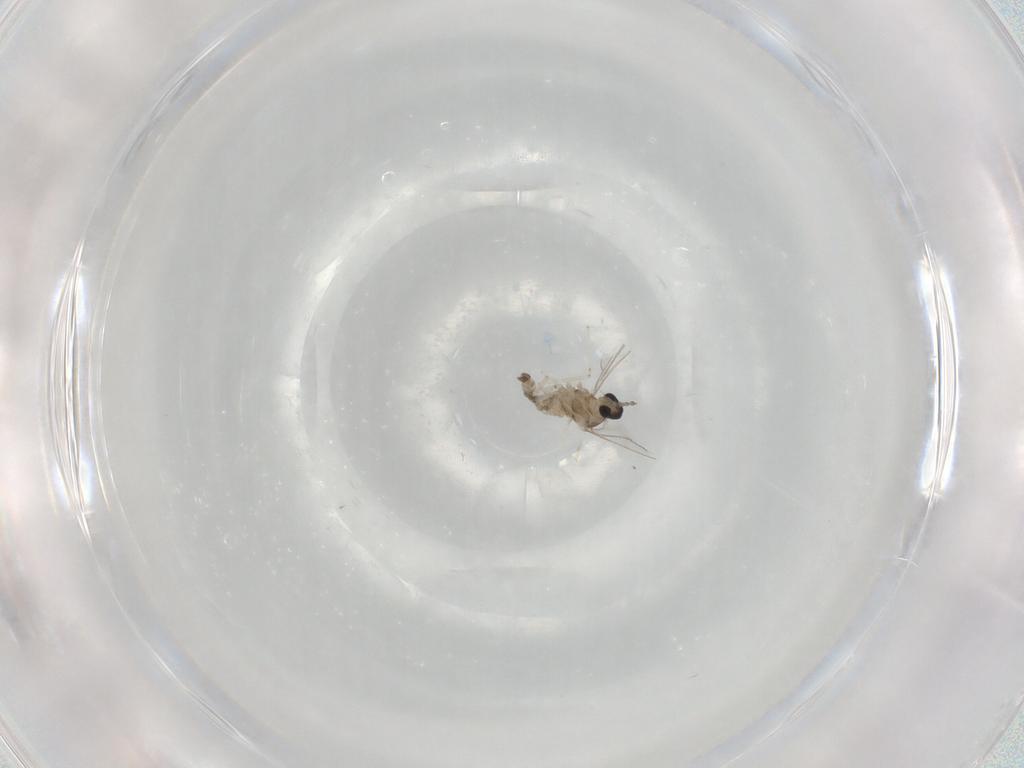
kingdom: Animalia
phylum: Arthropoda
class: Insecta
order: Diptera
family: Cecidomyiidae
